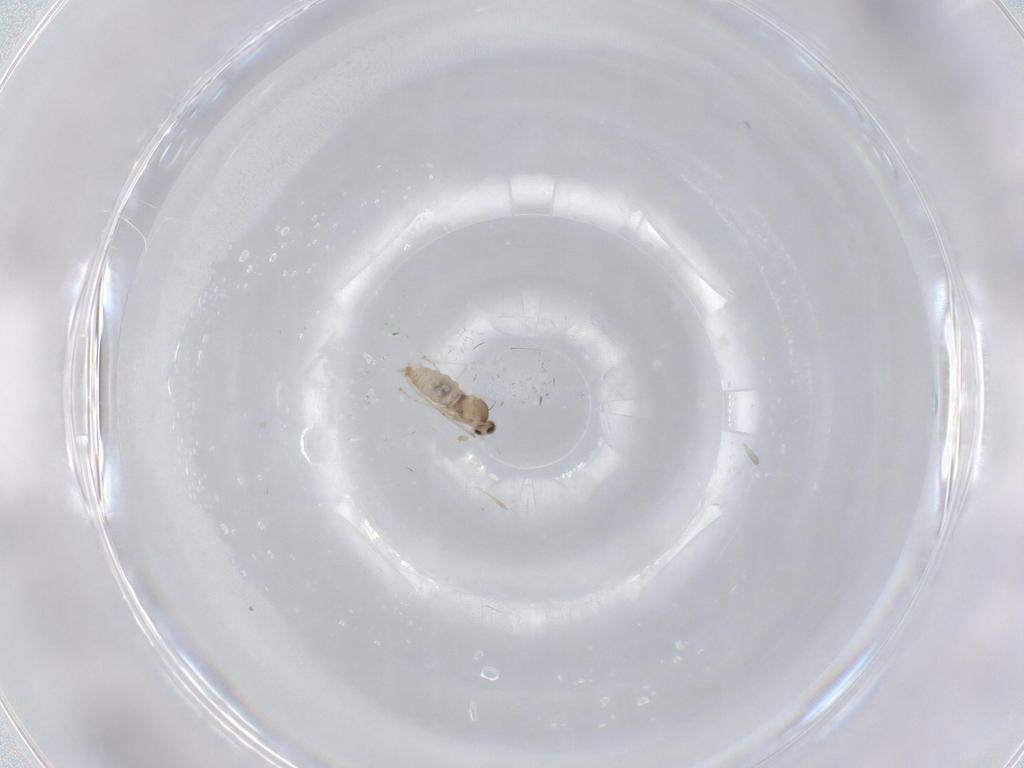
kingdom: Animalia
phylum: Arthropoda
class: Insecta
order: Diptera
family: Cecidomyiidae
